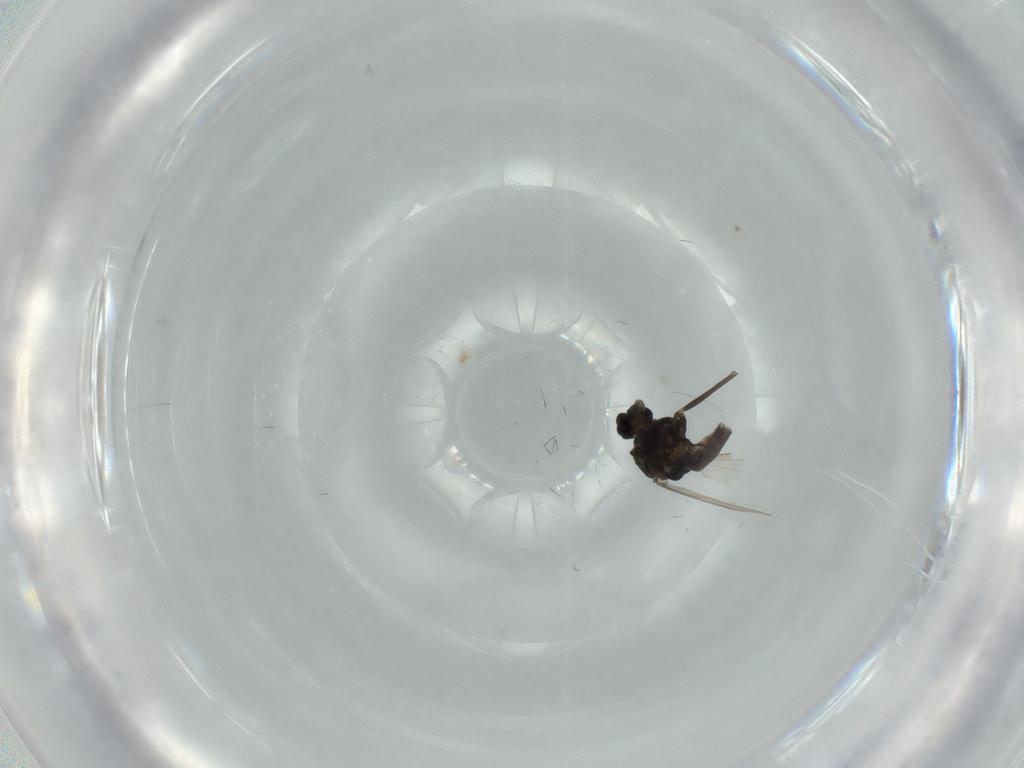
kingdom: Animalia
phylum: Arthropoda
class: Insecta
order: Diptera
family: Chironomidae
